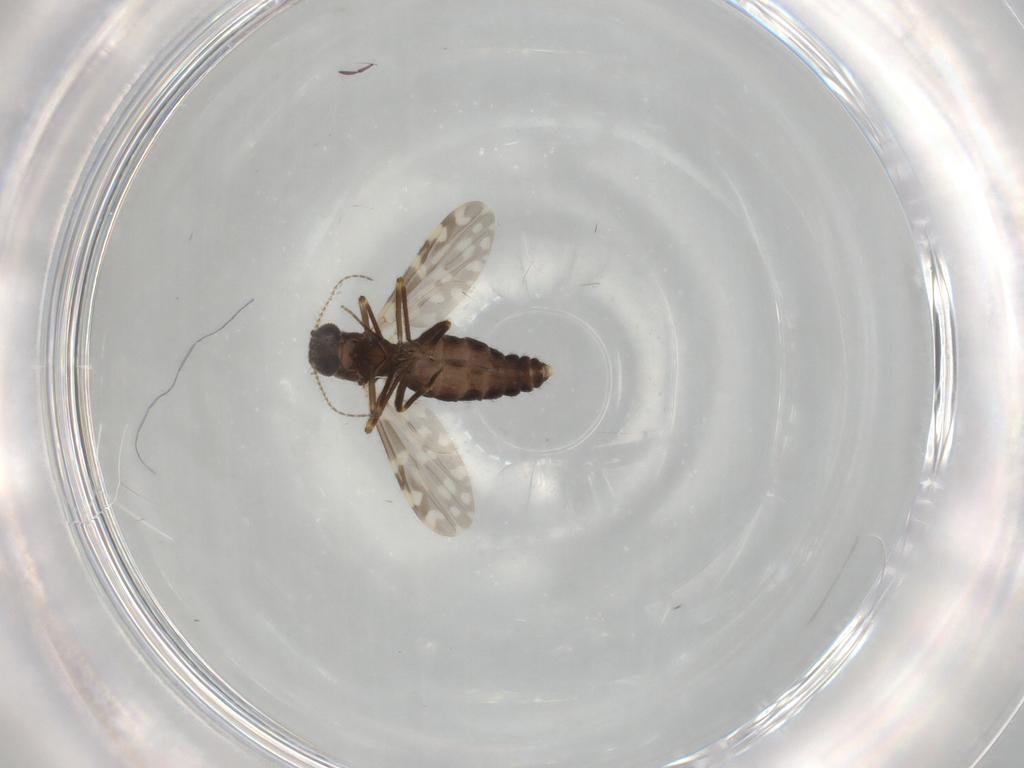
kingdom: Animalia
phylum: Arthropoda
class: Insecta
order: Diptera
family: Ceratopogonidae
